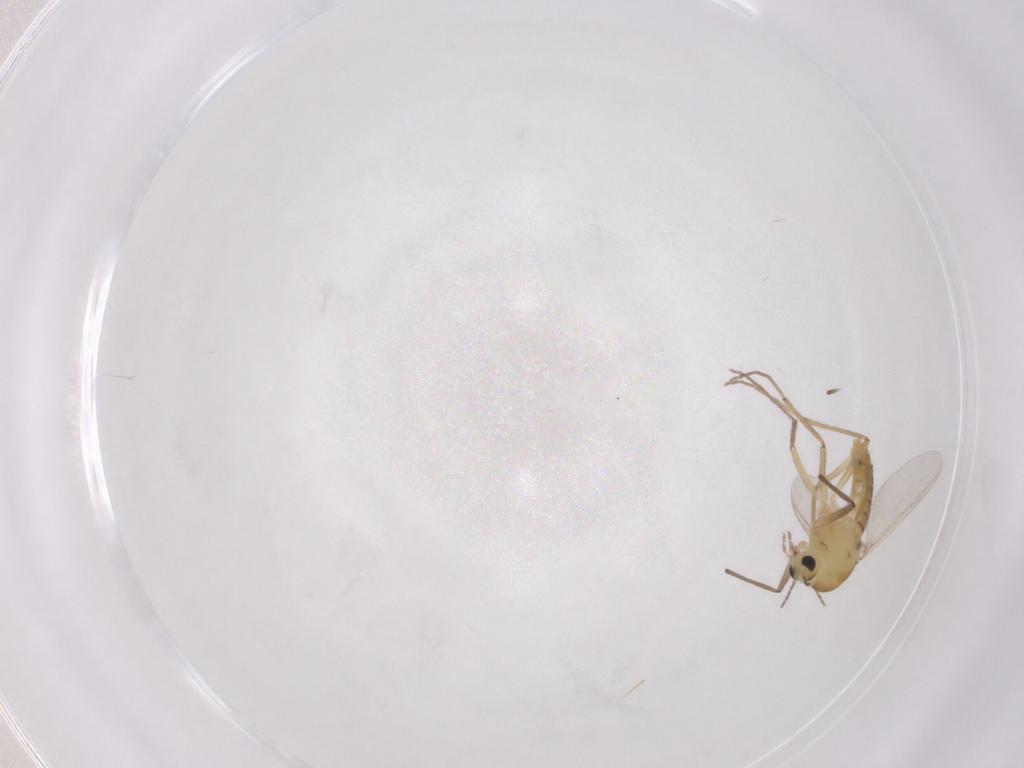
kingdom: Animalia
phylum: Arthropoda
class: Insecta
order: Diptera
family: Chironomidae
